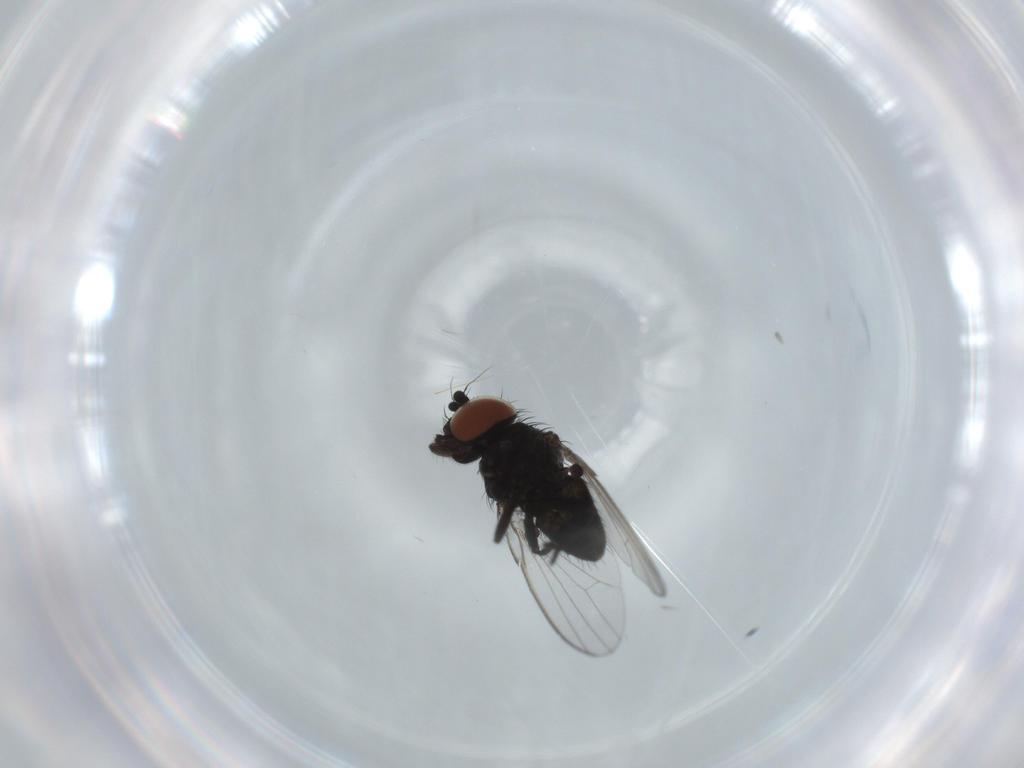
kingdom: Animalia
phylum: Arthropoda
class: Insecta
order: Diptera
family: Milichiidae
